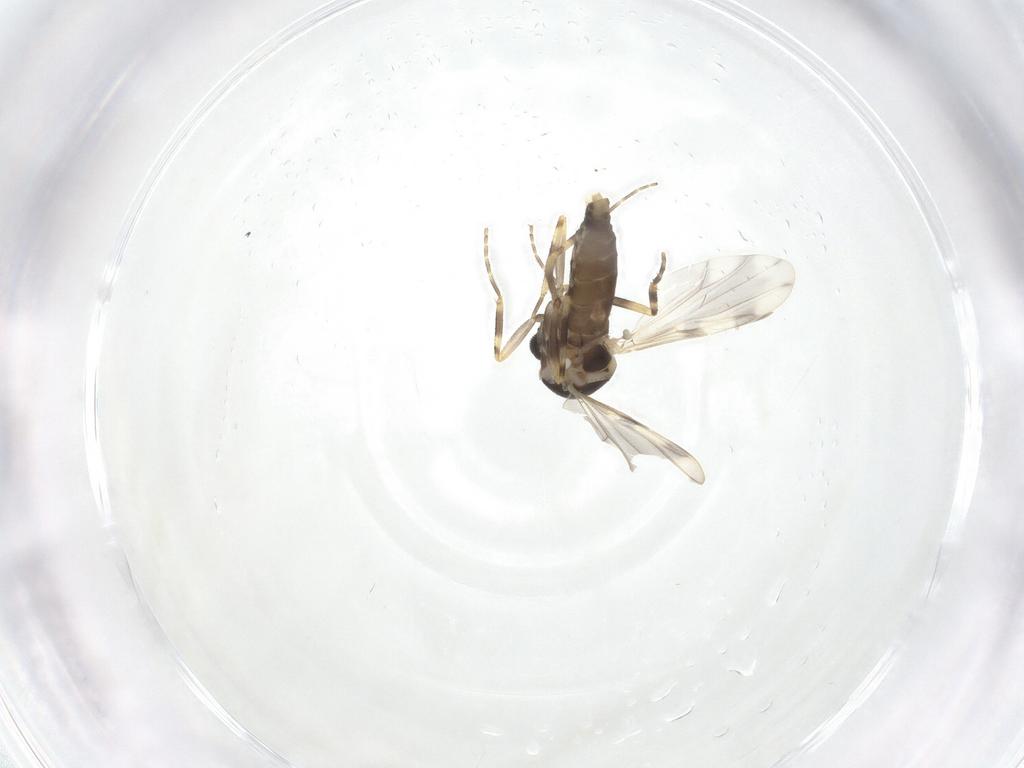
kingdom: Animalia
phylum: Arthropoda
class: Insecta
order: Diptera
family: Ceratopogonidae
